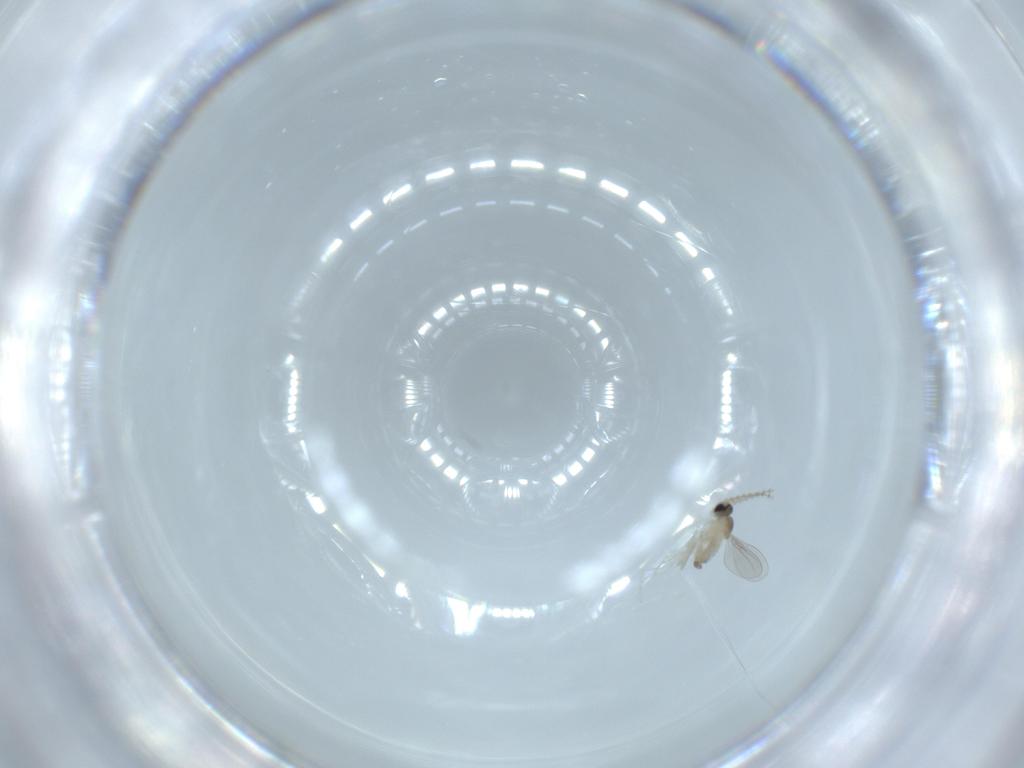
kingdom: Animalia
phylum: Arthropoda
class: Insecta
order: Diptera
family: Cecidomyiidae
